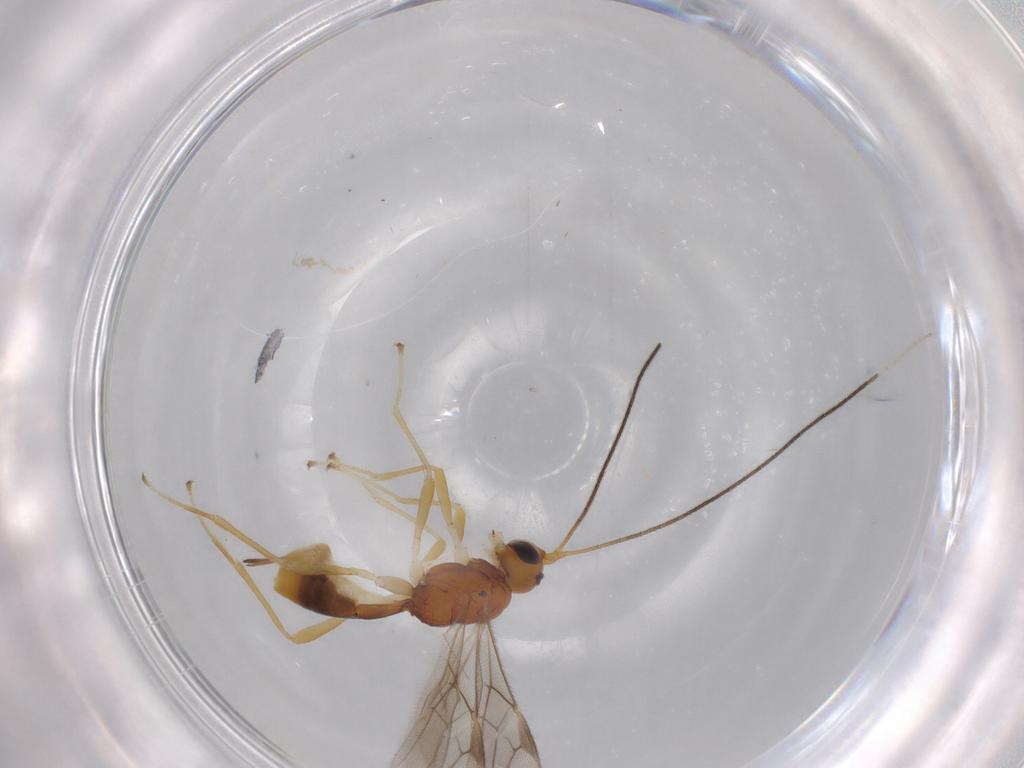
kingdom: Animalia
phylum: Arthropoda
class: Insecta
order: Hymenoptera
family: Braconidae
